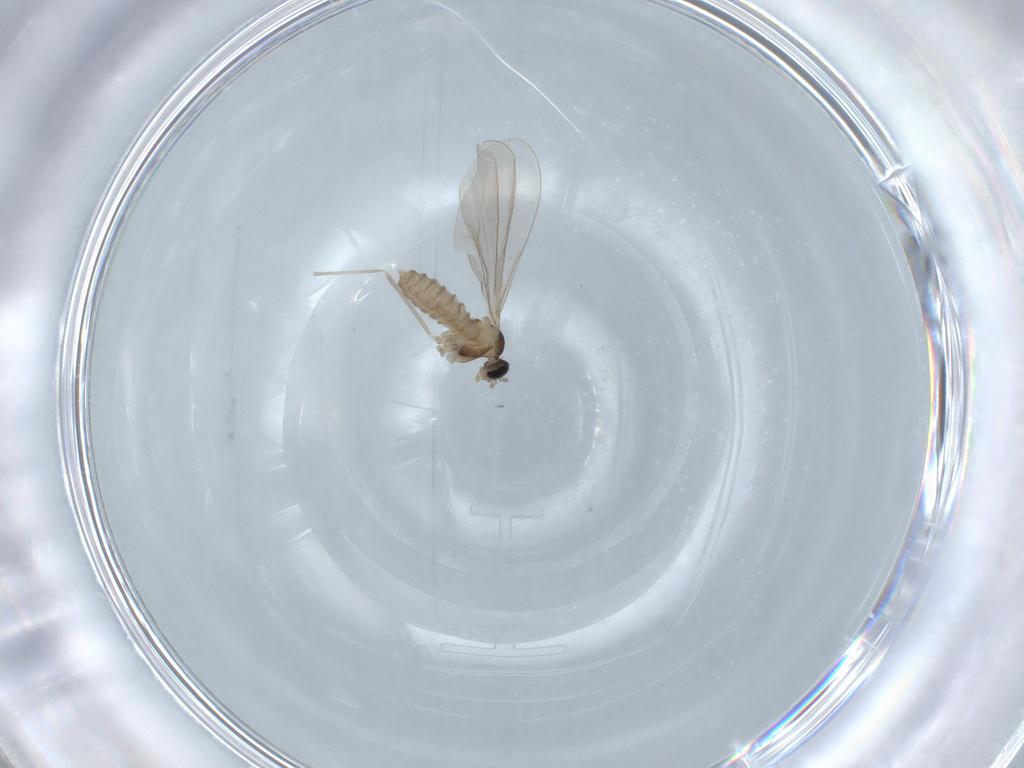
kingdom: Animalia
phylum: Arthropoda
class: Insecta
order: Diptera
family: Cecidomyiidae
